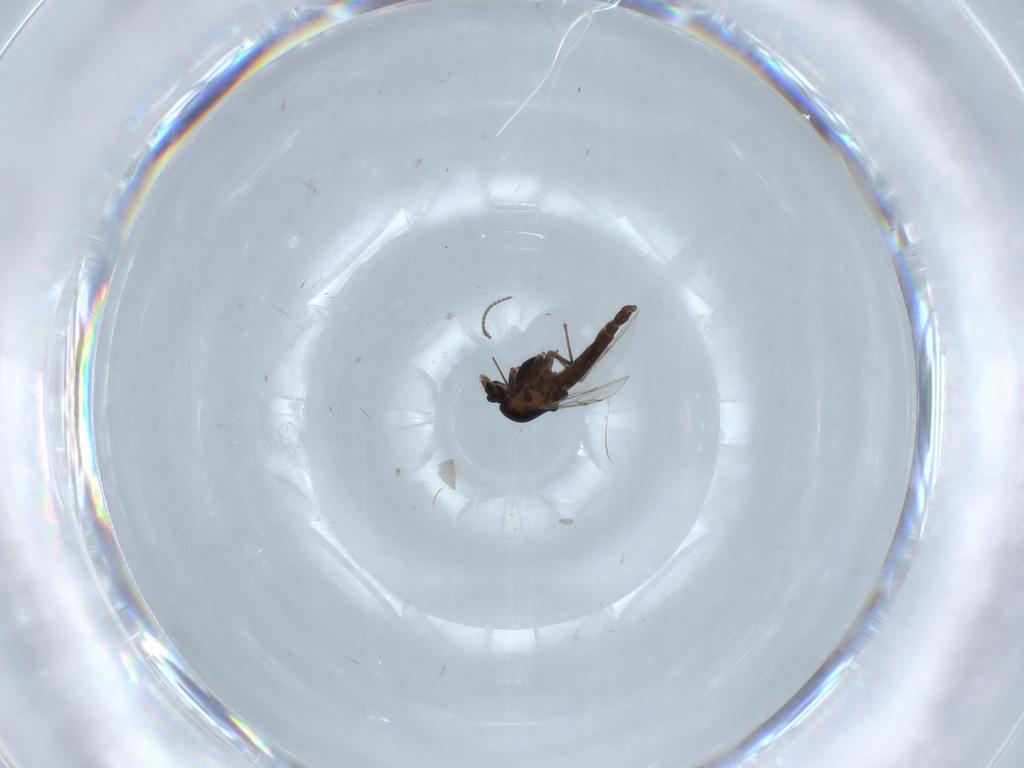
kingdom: Animalia
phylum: Arthropoda
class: Insecta
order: Diptera
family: Chironomidae
